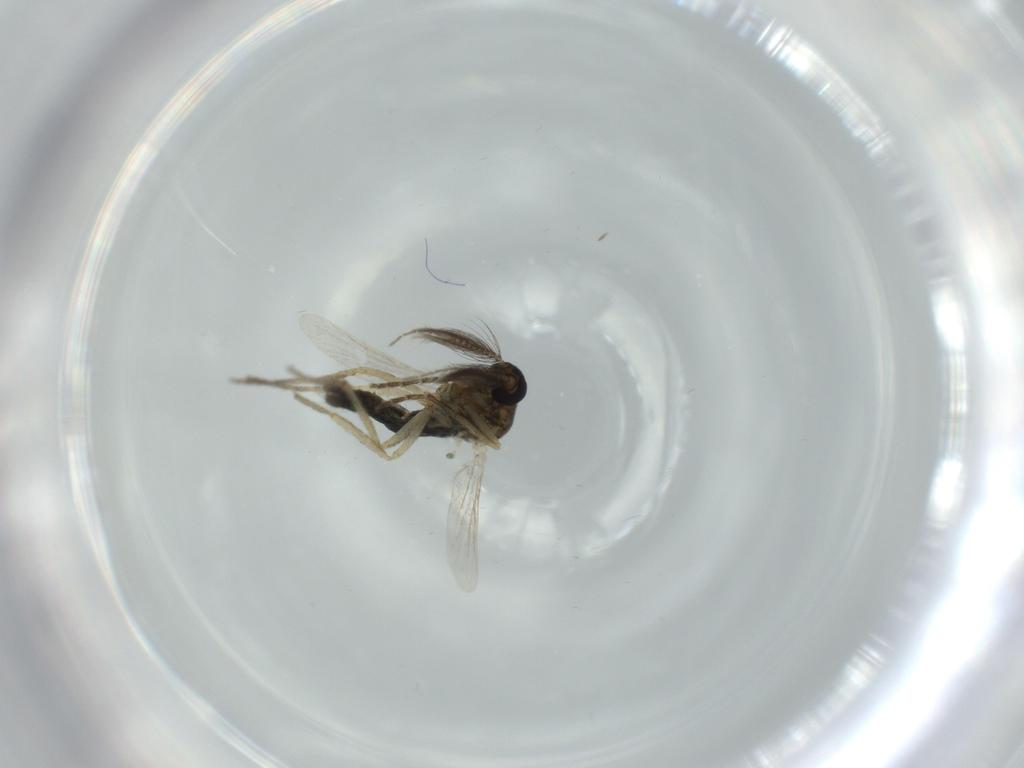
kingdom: Animalia
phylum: Arthropoda
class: Insecta
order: Diptera
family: Ceratopogonidae
